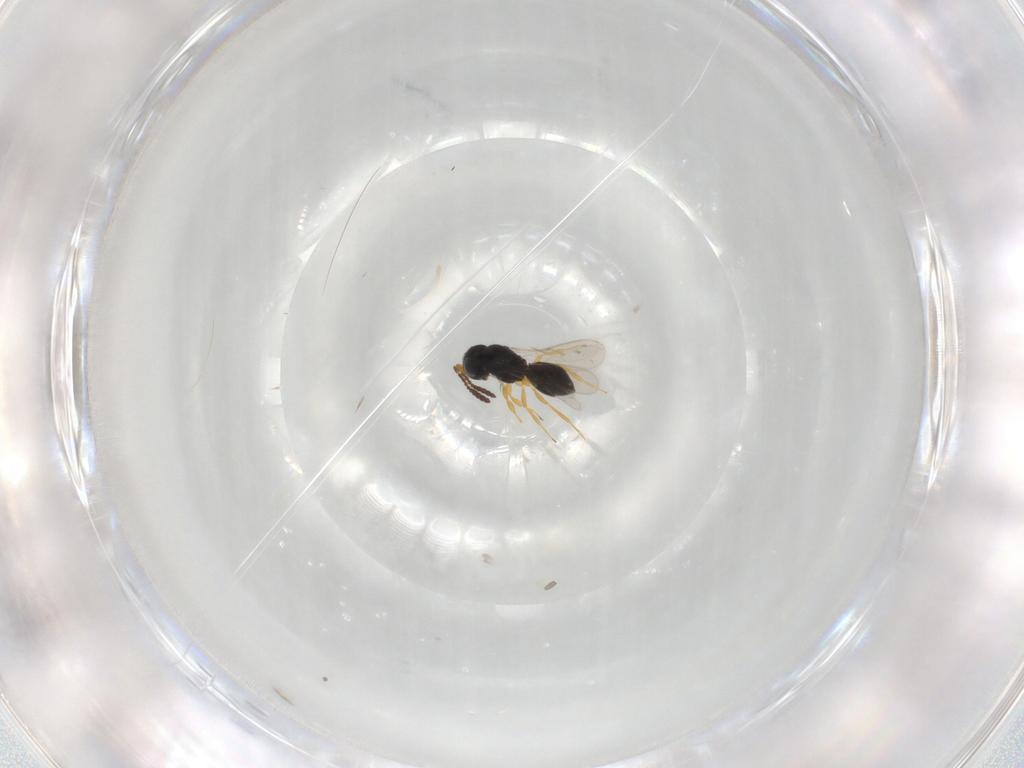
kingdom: Animalia
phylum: Arthropoda
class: Insecta
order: Hymenoptera
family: Scelionidae
